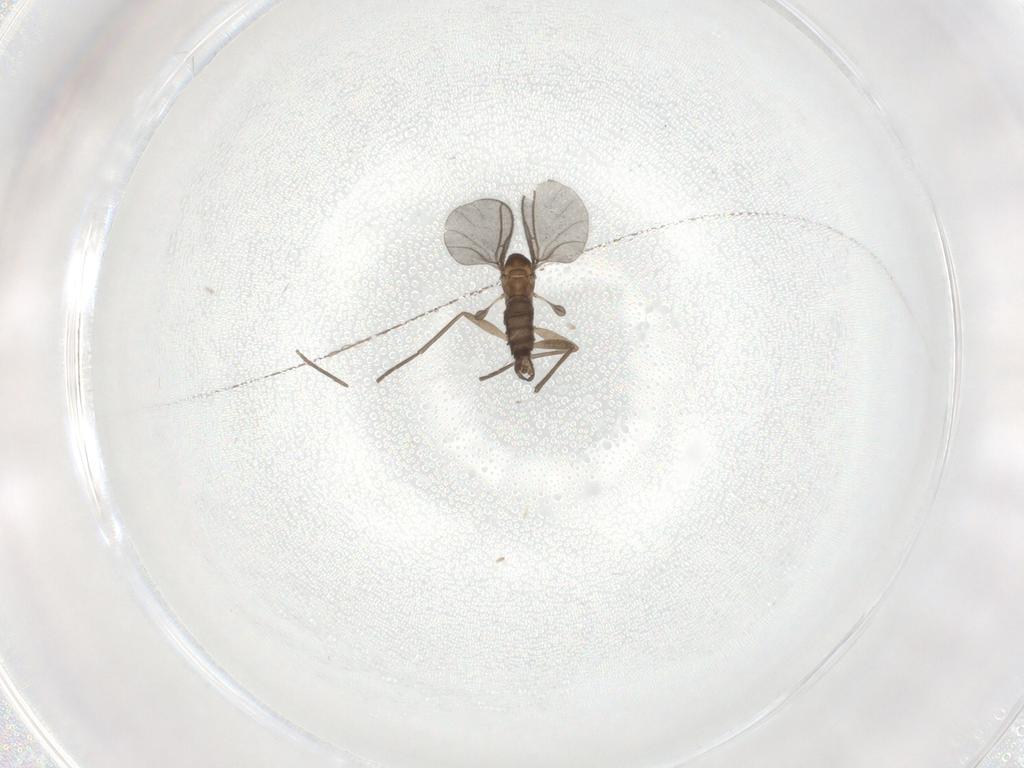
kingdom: Animalia
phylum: Arthropoda
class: Insecta
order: Diptera
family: Sciaridae
